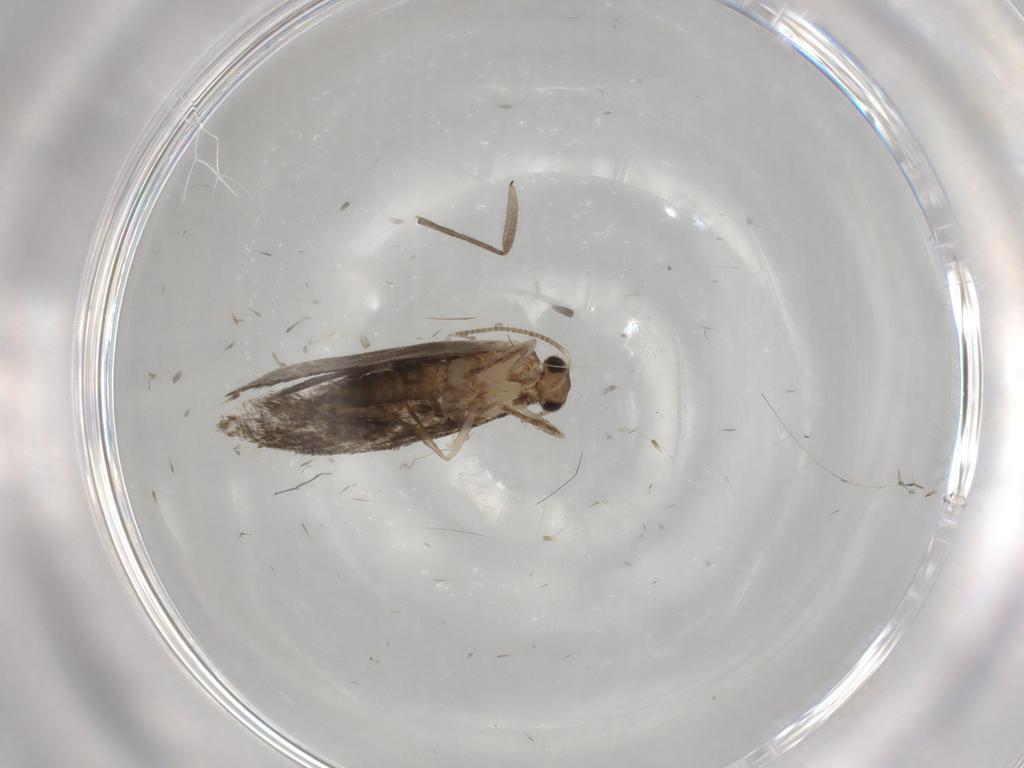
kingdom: Animalia
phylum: Arthropoda
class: Insecta
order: Lepidoptera
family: Crambidae
